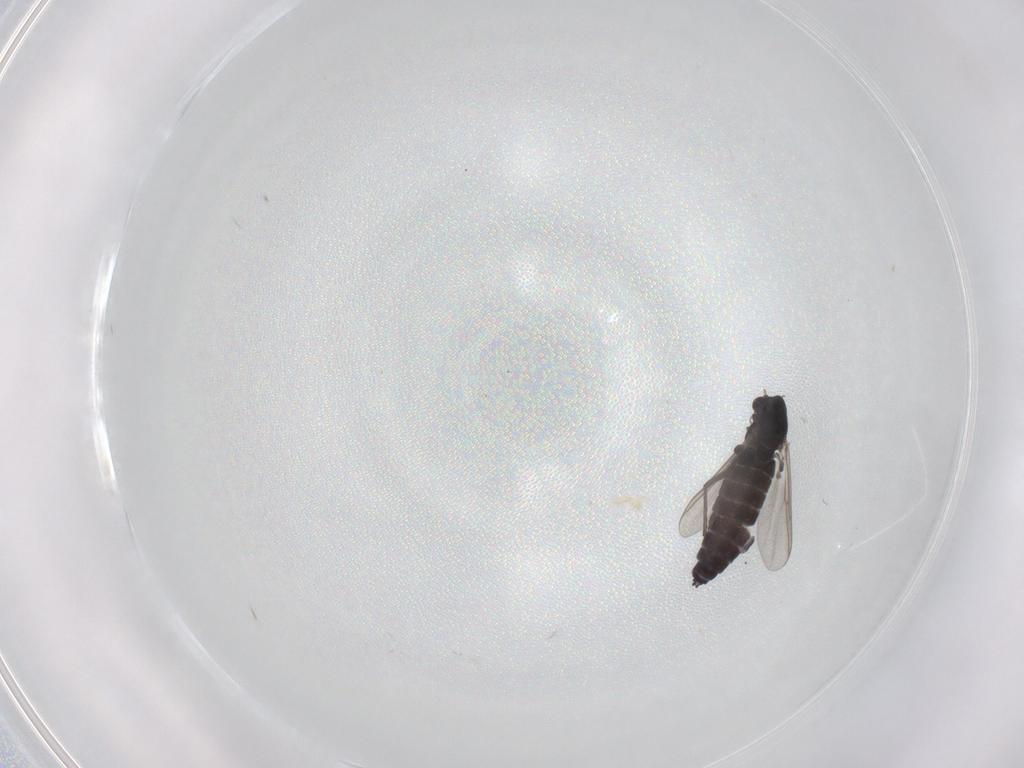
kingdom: Animalia
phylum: Arthropoda
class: Insecta
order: Diptera
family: Chironomidae
